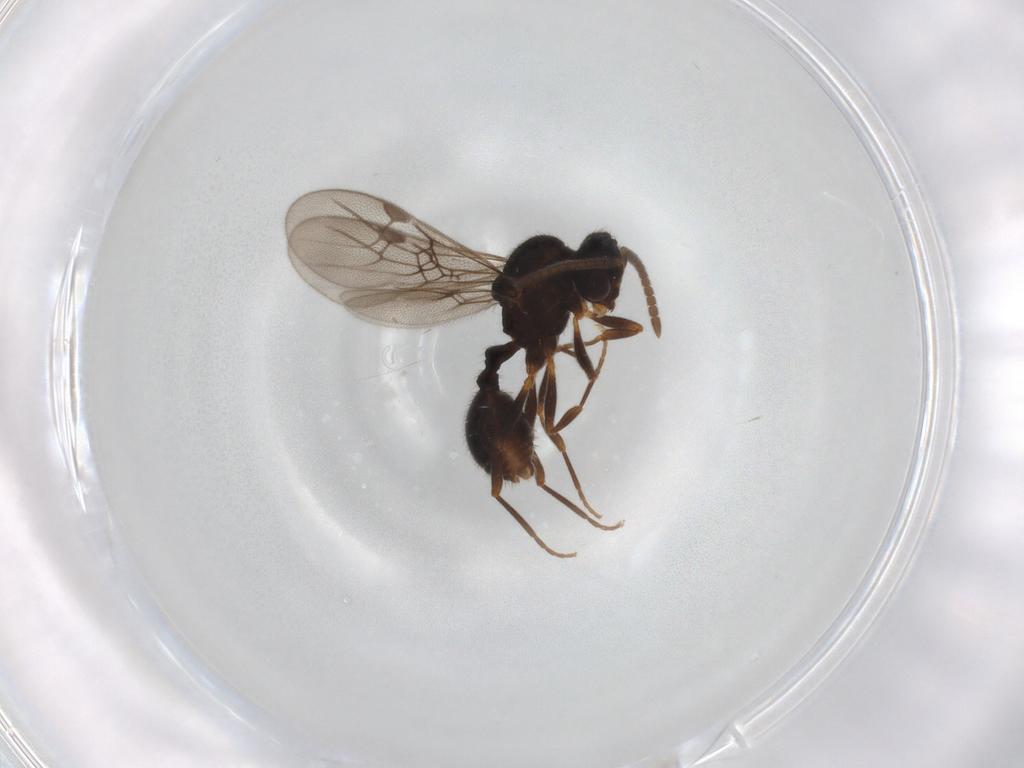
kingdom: Animalia
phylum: Arthropoda
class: Insecta
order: Hymenoptera
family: Formicidae
